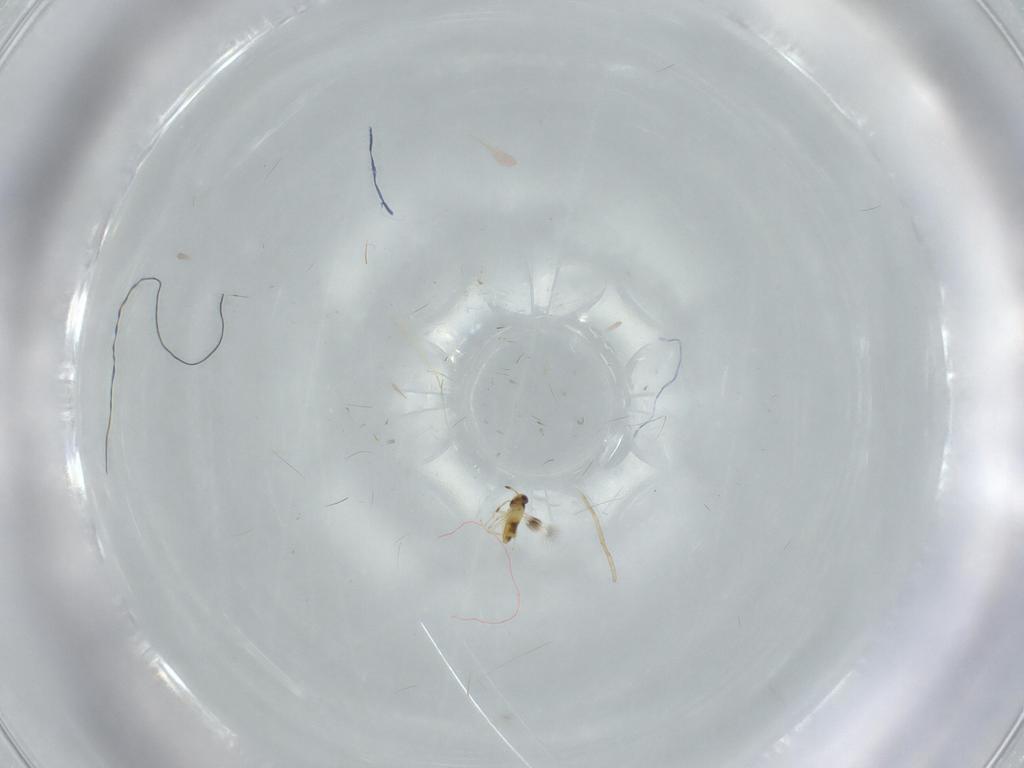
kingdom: Animalia
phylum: Arthropoda
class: Insecta
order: Hymenoptera
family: Signiphoridae
